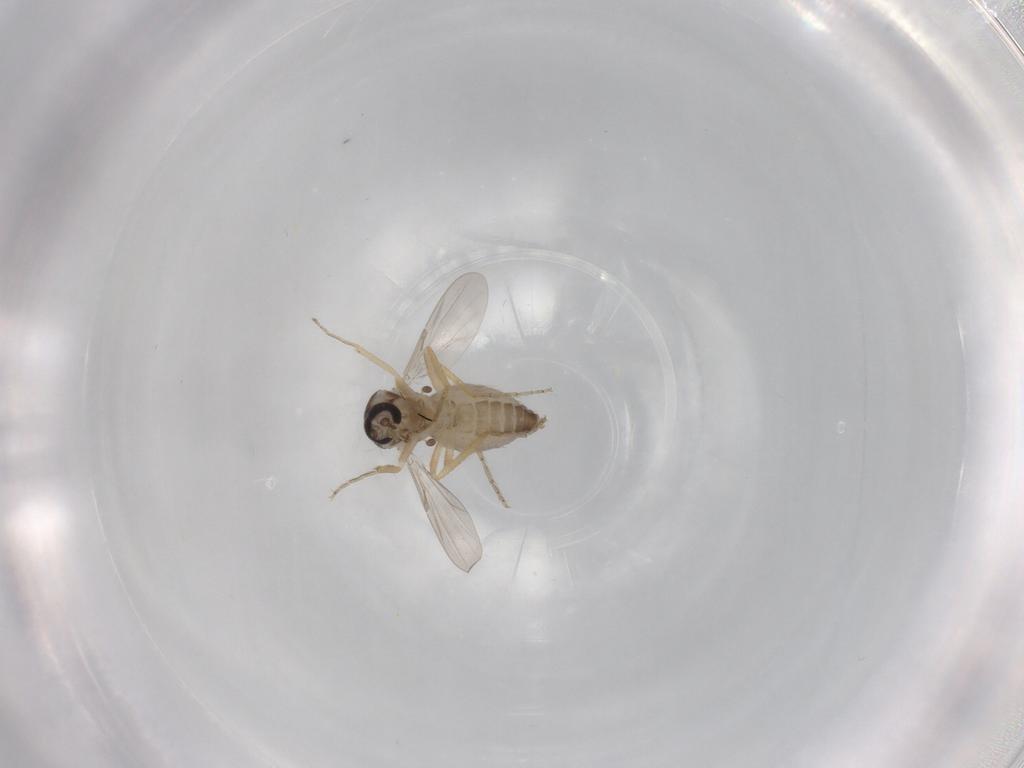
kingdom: Animalia
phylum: Arthropoda
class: Insecta
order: Diptera
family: Ceratopogonidae
